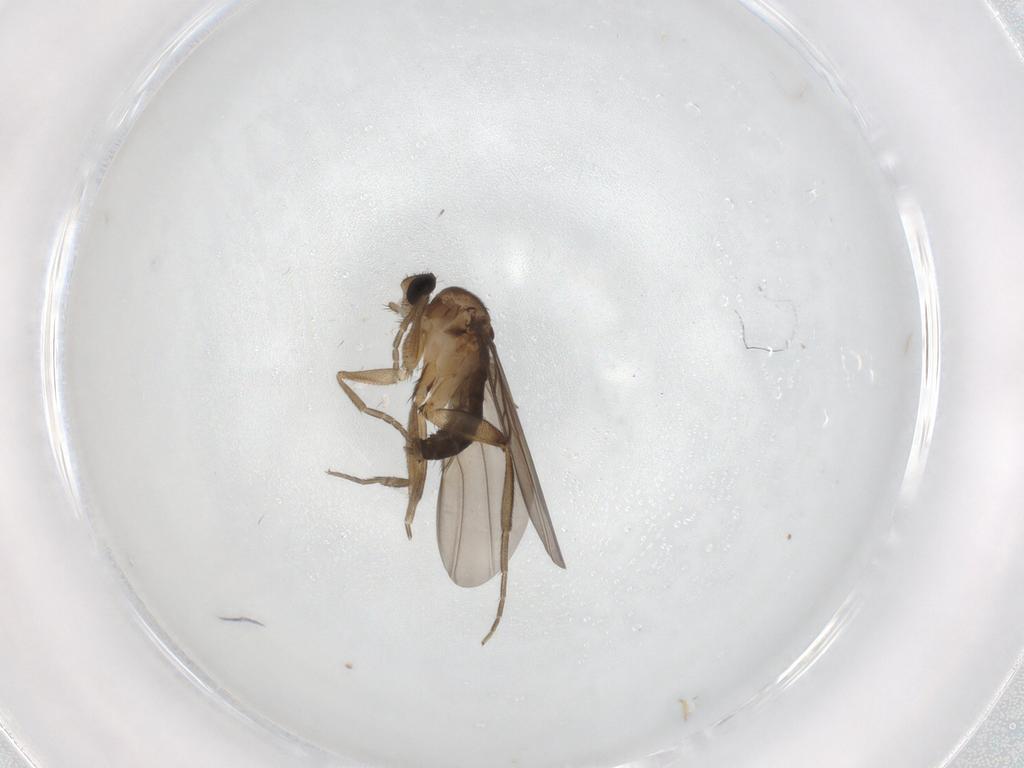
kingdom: Animalia
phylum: Arthropoda
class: Insecta
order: Diptera
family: Phoridae
